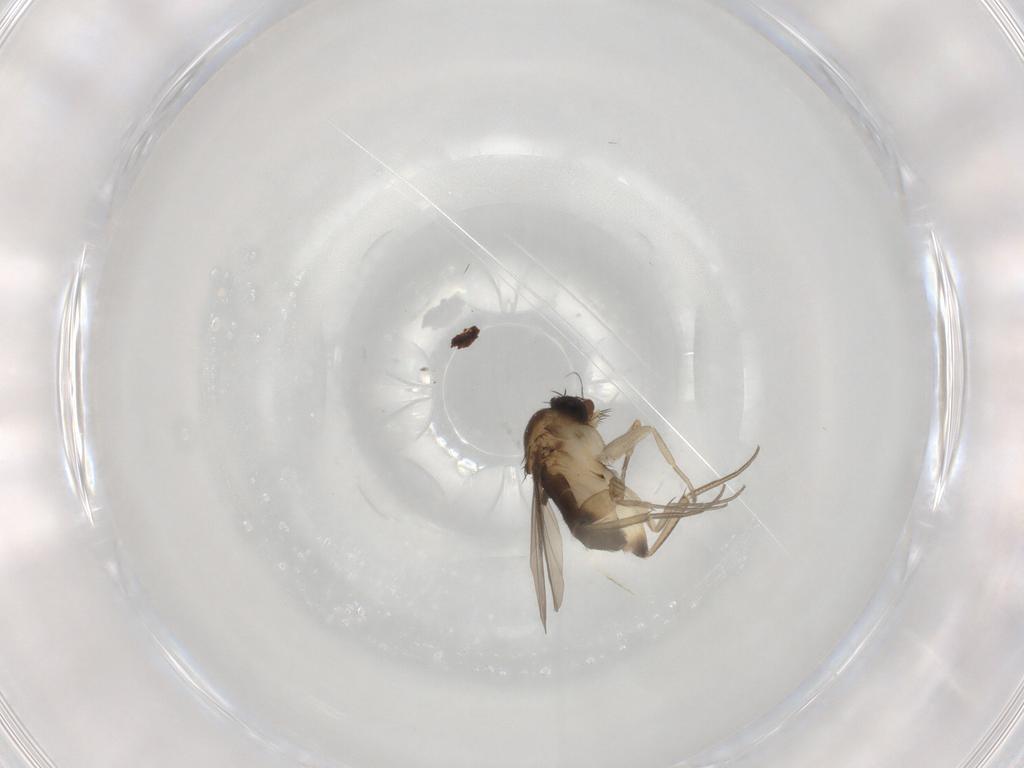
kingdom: Animalia
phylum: Arthropoda
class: Insecta
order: Diptera
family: Phoridae
